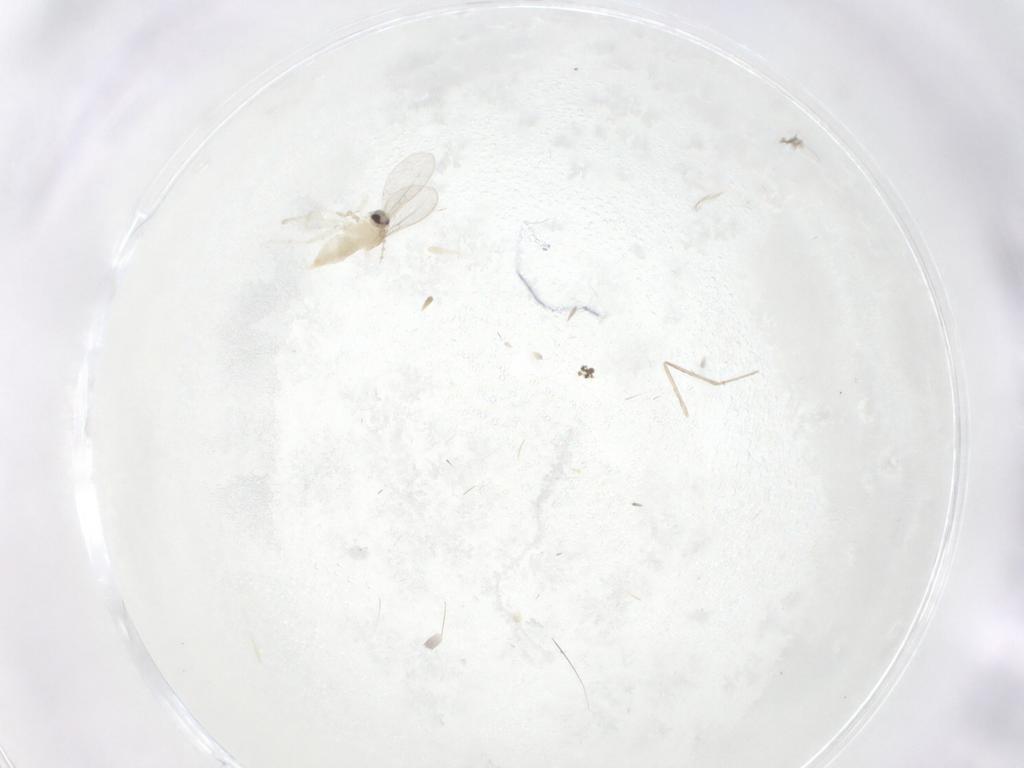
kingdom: Animalia
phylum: Arthropoda
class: Insecta
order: Diptera
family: Cecidomyiidae
